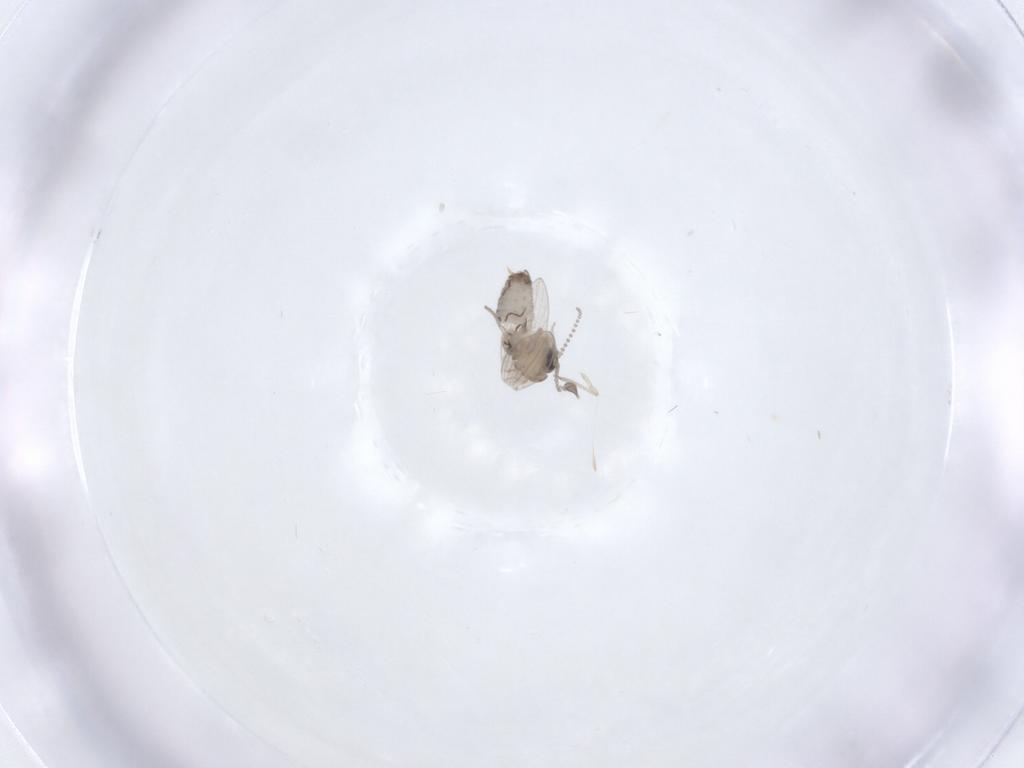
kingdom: Animalia
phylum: Arthropoda
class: Insecta
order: Diptera
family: Psychodidae
